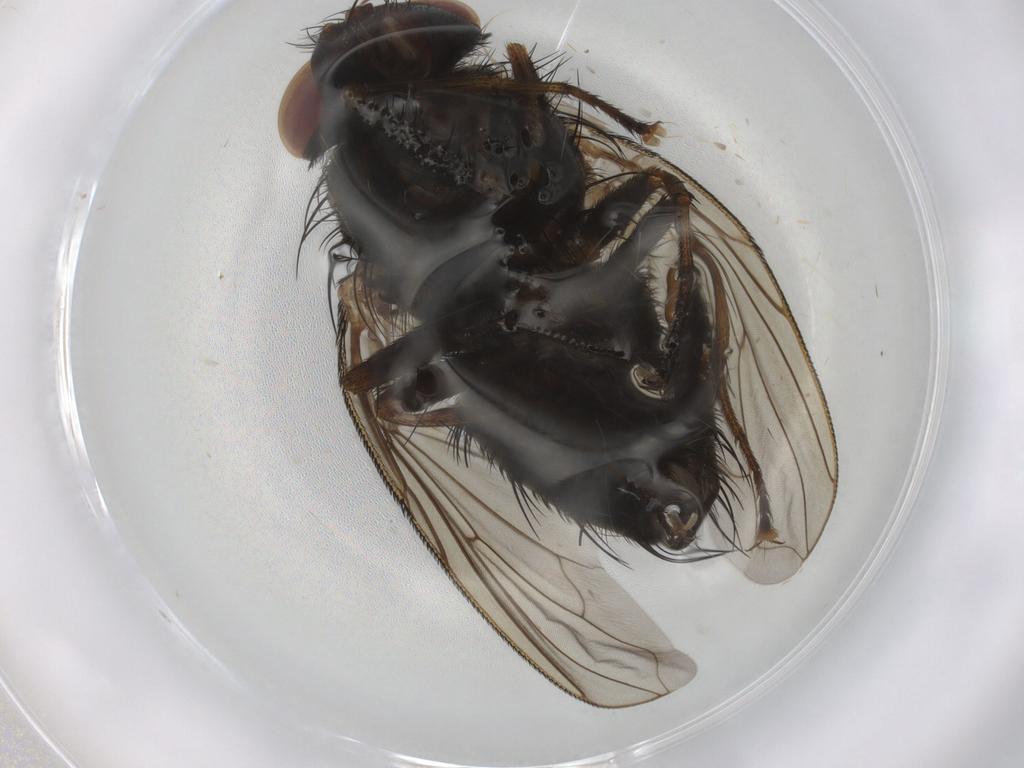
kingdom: Animalia
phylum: Arthropoda
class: Insecta
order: Diptera
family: Calliphoridae
